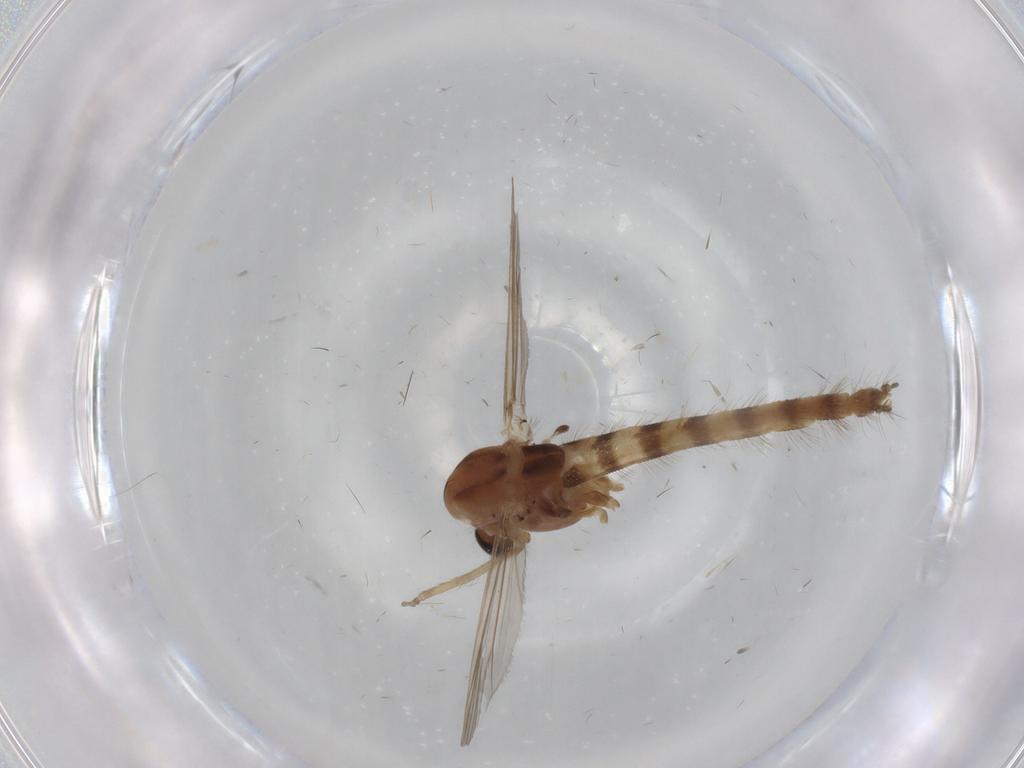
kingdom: Animalia
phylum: Arthropoda
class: Insecta
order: Diptera
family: Chironomidae
